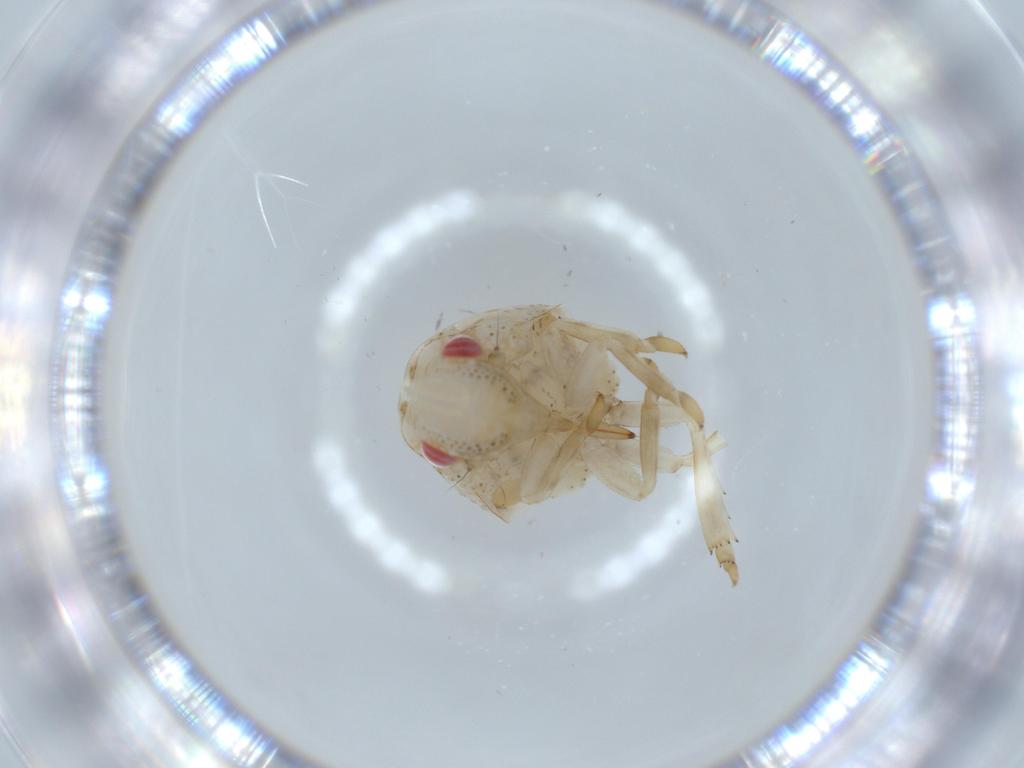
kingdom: Animalia
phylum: Arthropoda
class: Insecta
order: Hemiptera
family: Acanaloniidae
